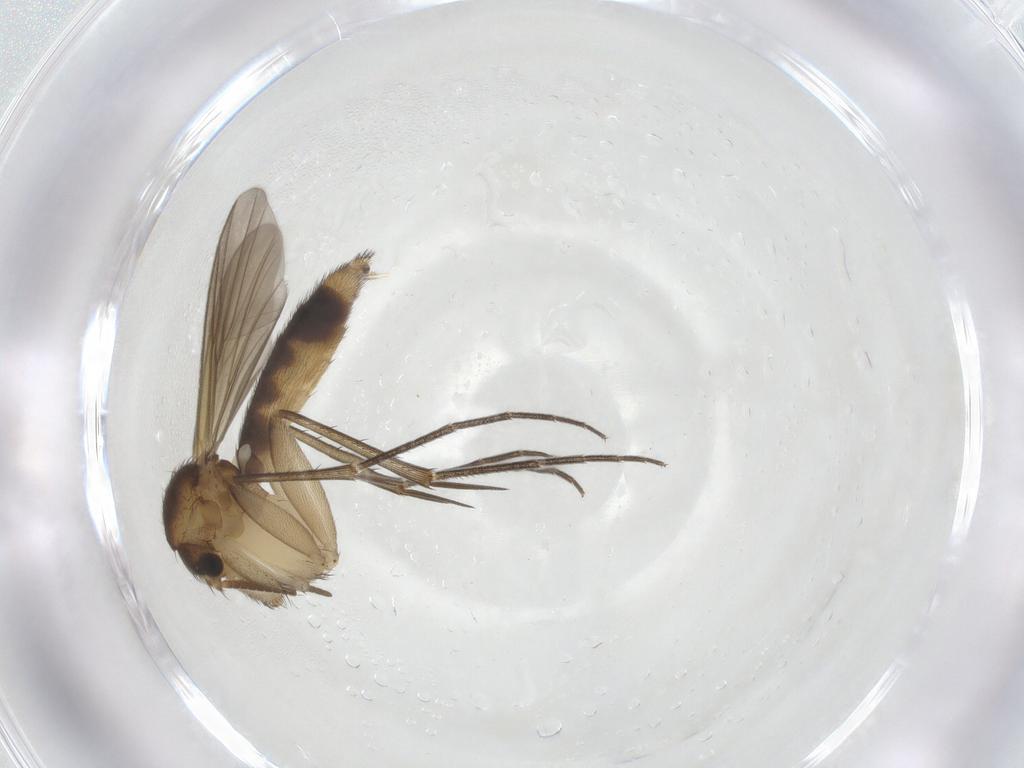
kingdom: Animalia
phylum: Arthropoda
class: Insecta
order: Diptera
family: Mycetophilidae
